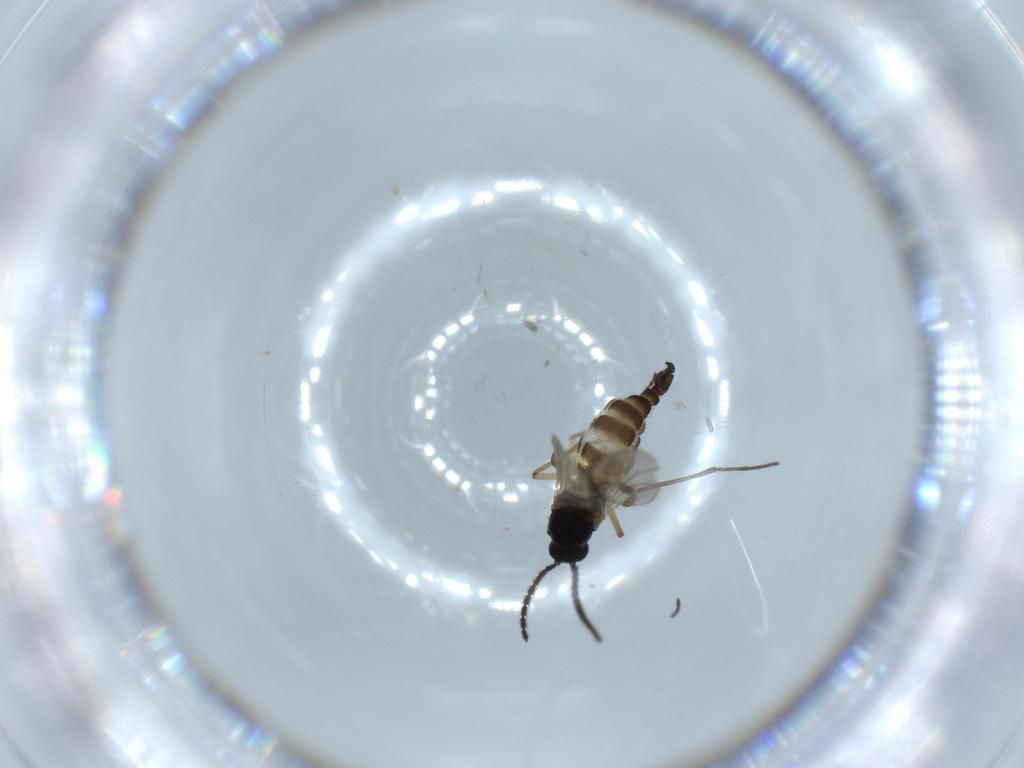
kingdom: Animalia
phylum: Arthropoda
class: Insecta
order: Diptera
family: Sciaridae
